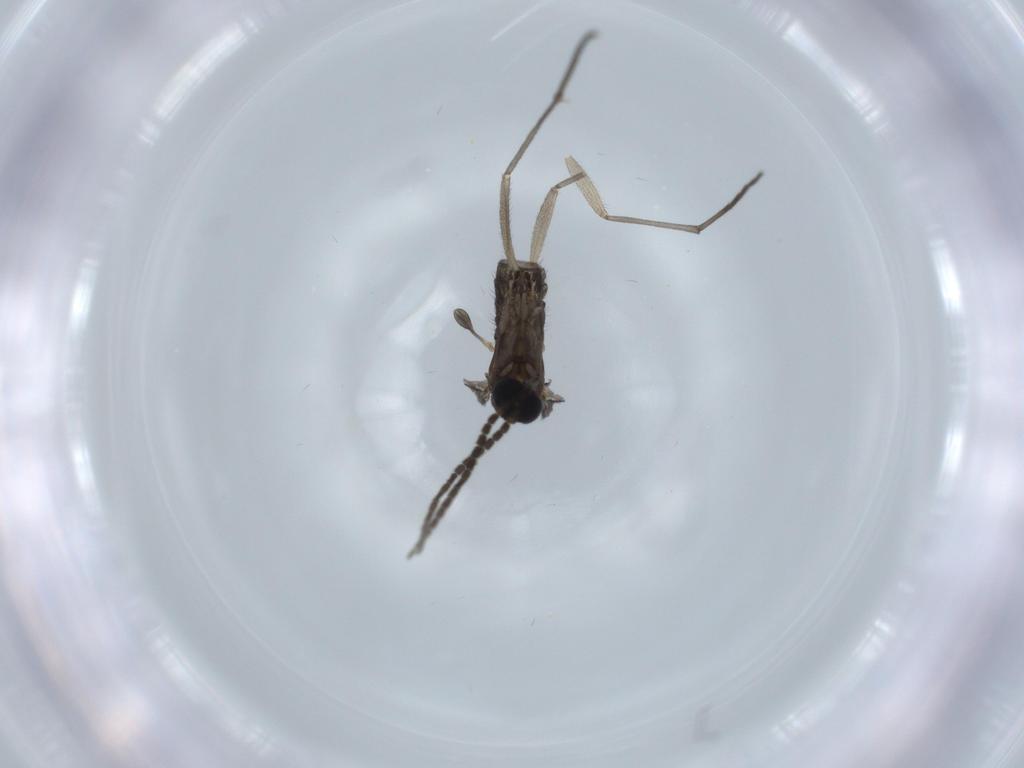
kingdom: Animalia
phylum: Arthropoda
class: Insecta
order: Diptera
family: Sciaridae
